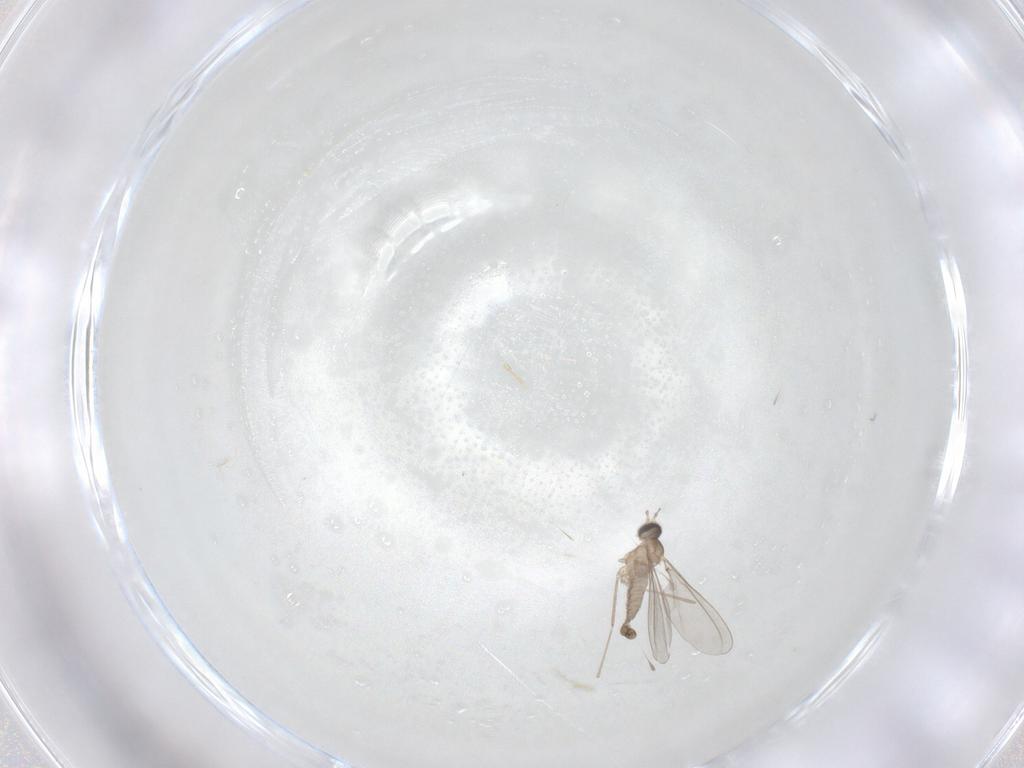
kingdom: Animalia
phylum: Arthropoda
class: Insecta
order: Diptera
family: Cecidomyiidae
